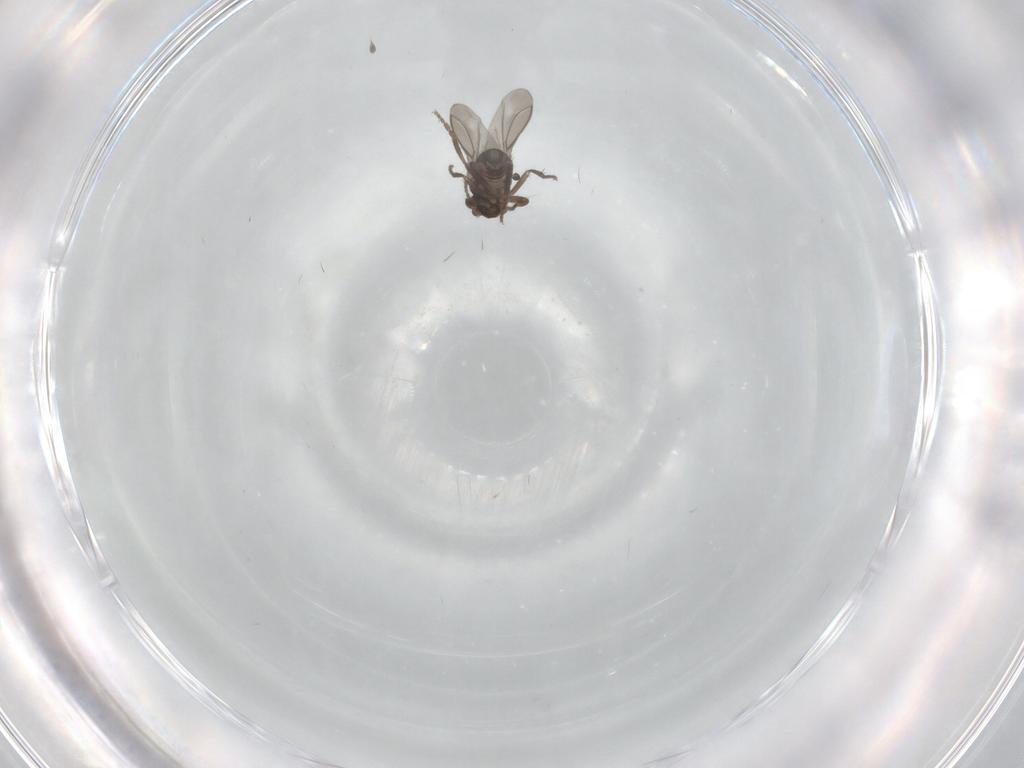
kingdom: Animalia
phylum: Arthropoda
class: Insecta
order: Diptera
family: Sphaeroceridae
